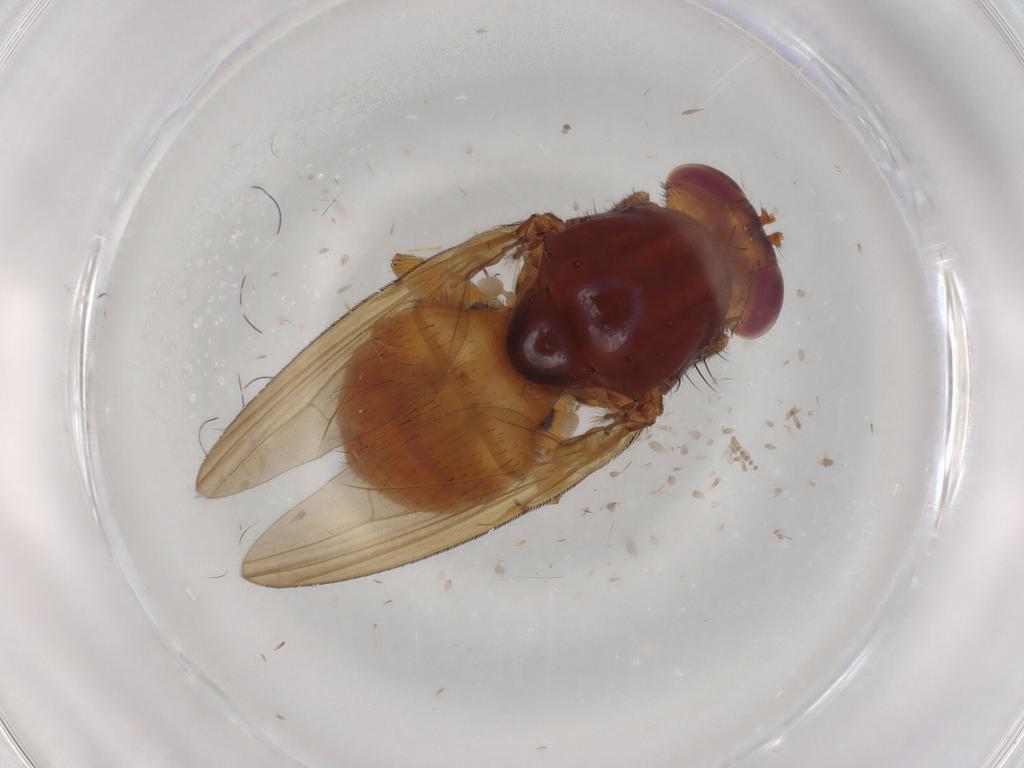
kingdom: Animalia
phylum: Arthropoda
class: Insecta
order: Diptera
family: Lauxaniidae
